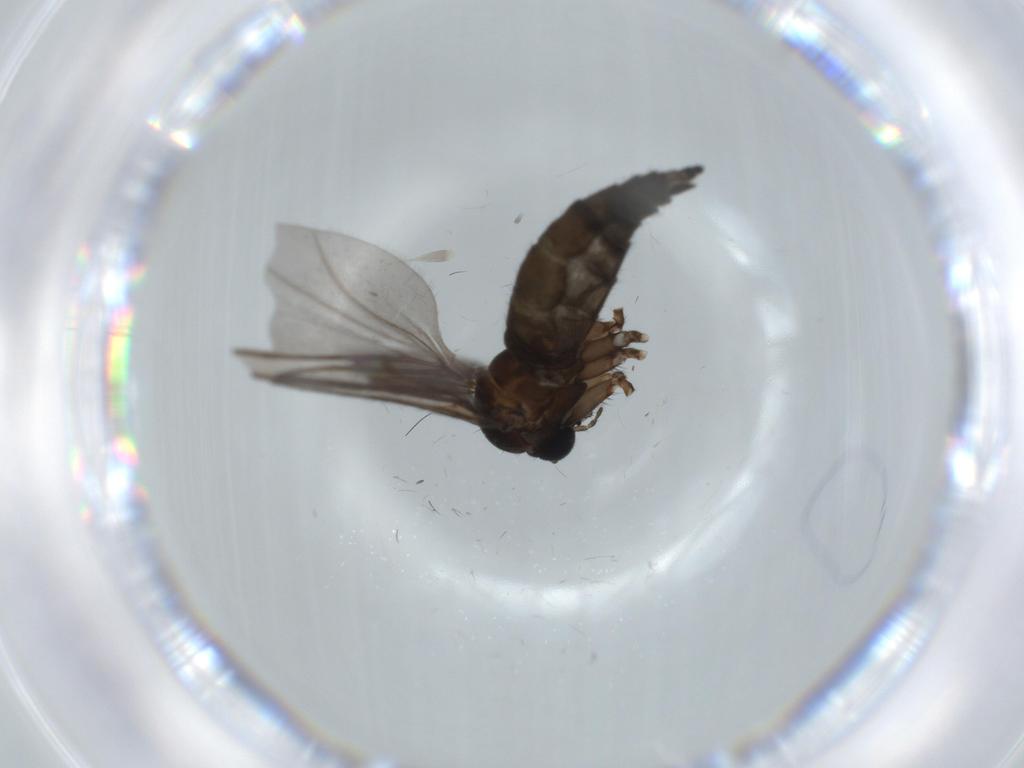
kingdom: Animalia
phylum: Arthropoda
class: Insecta
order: Diptera
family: Sciaridae
